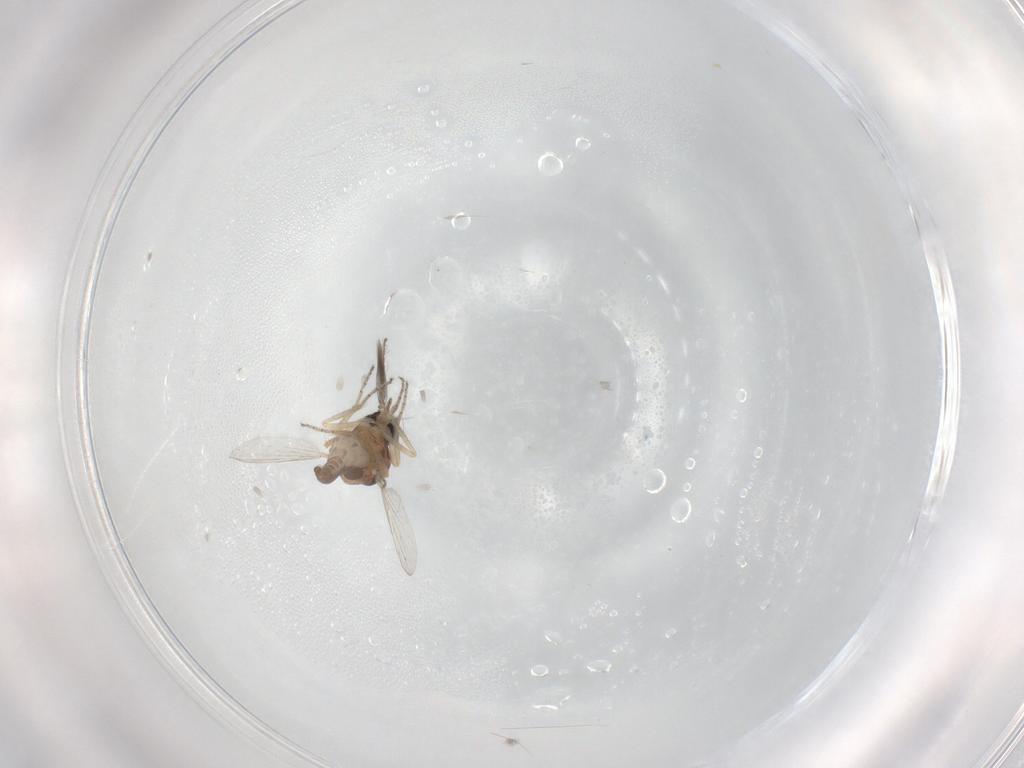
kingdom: Animalia
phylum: Arthropoda
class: Insecta
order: Diptera
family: Ceratopogonidae
